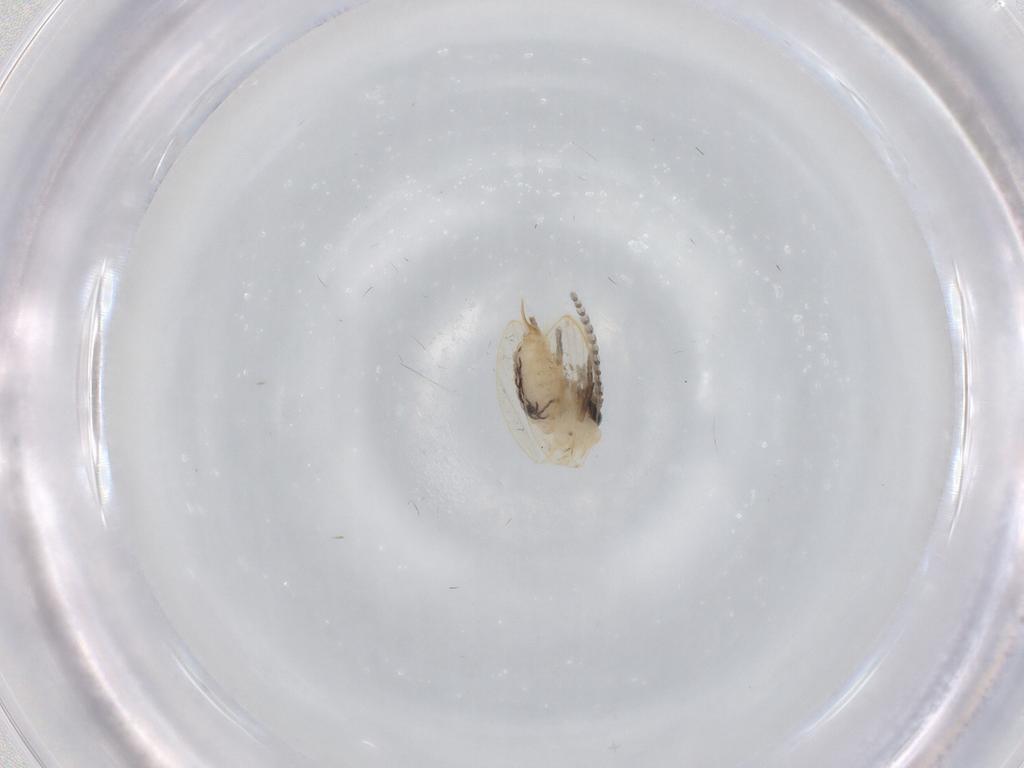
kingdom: Animalia
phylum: Arthropoda
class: Insecta
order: Diptera
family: Psychodidae
